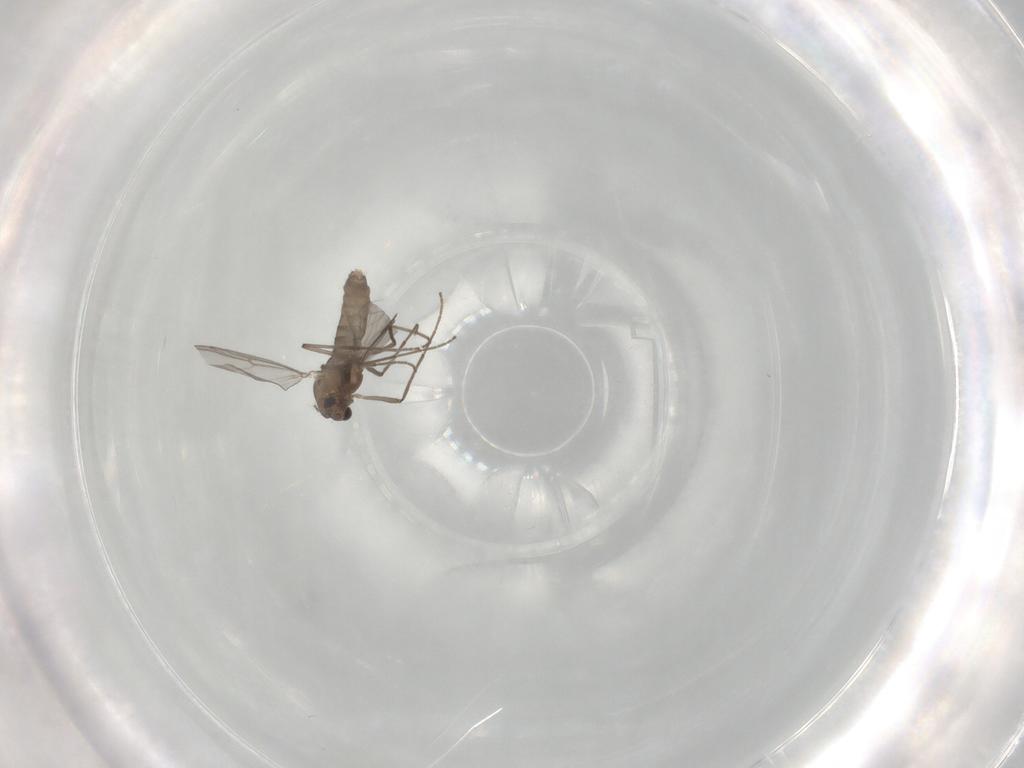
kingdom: Animalia
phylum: Arthropoda
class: Insecta
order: Diptera
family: Chironomidae
